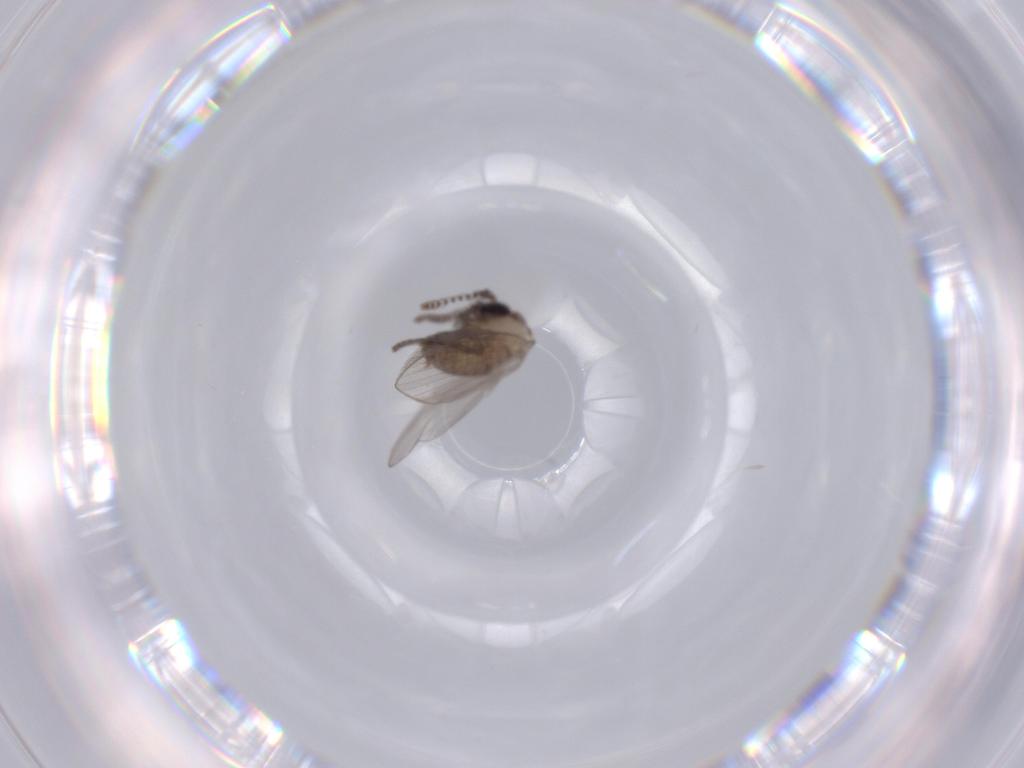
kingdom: Animalia
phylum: Arthropoda
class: Insecta
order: Diptera
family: Psychodidae
